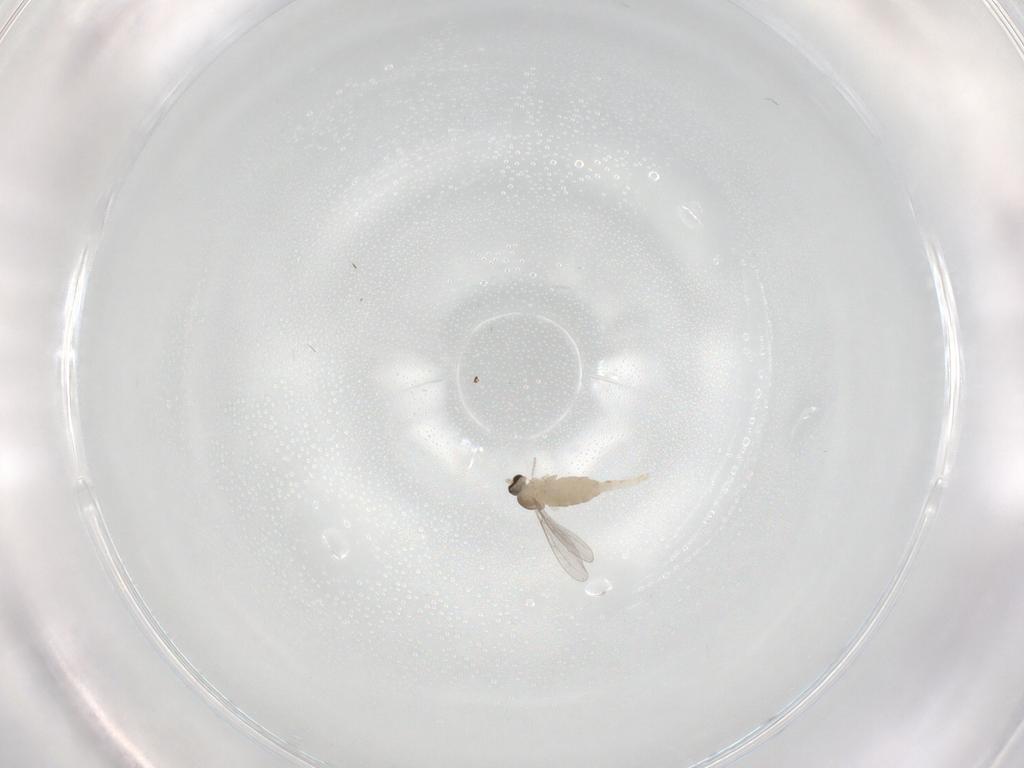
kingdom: Animalia
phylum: Arthropoda
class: Insecta
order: Diptera
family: Cecidomyiidae
